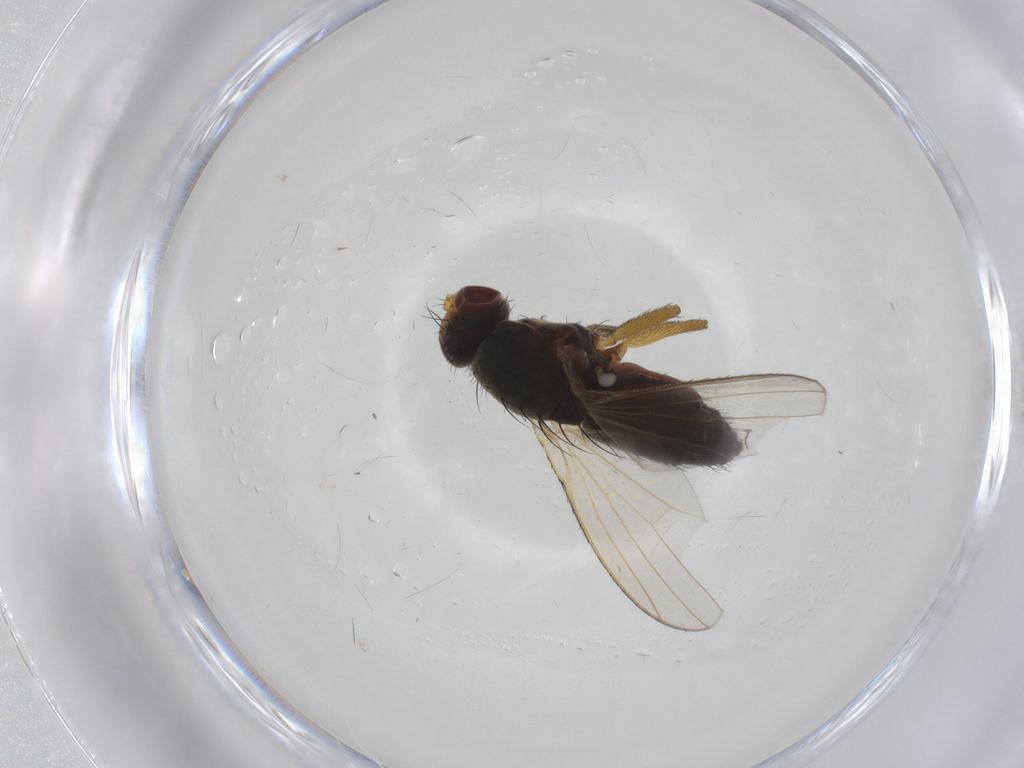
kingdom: Animalia
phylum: Arthropoda
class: Insecta
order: Diptera
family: Heleomyzidae
